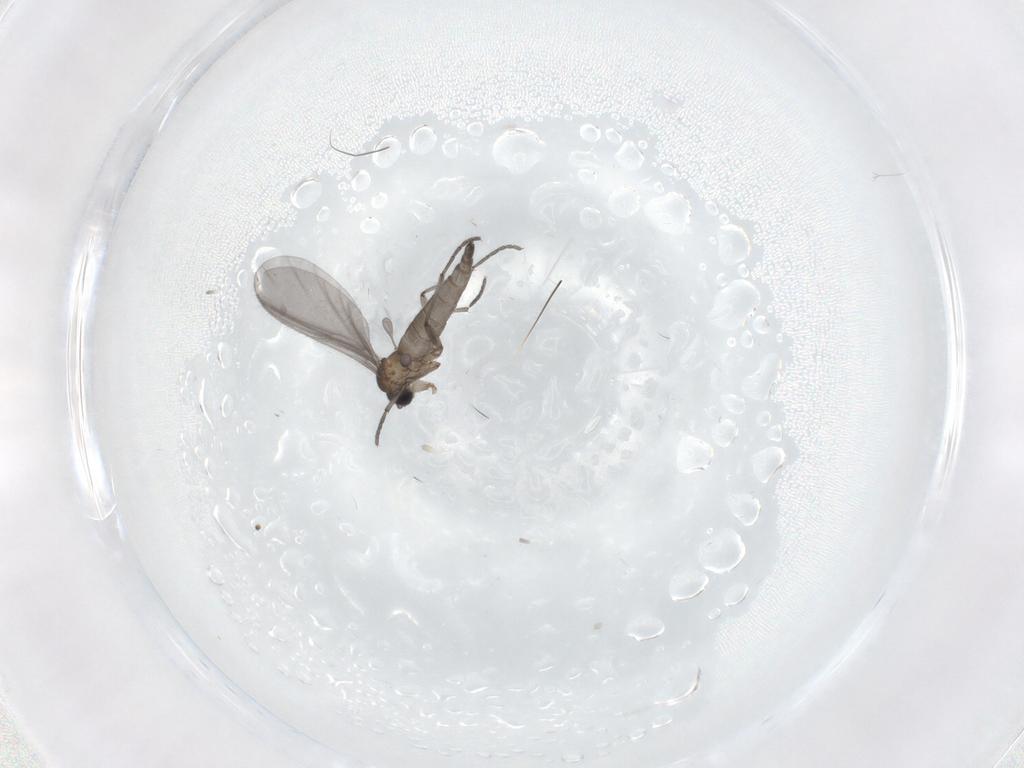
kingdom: Animalia
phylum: Arthropoda
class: Insecta
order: Diptera
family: Sciaridae
